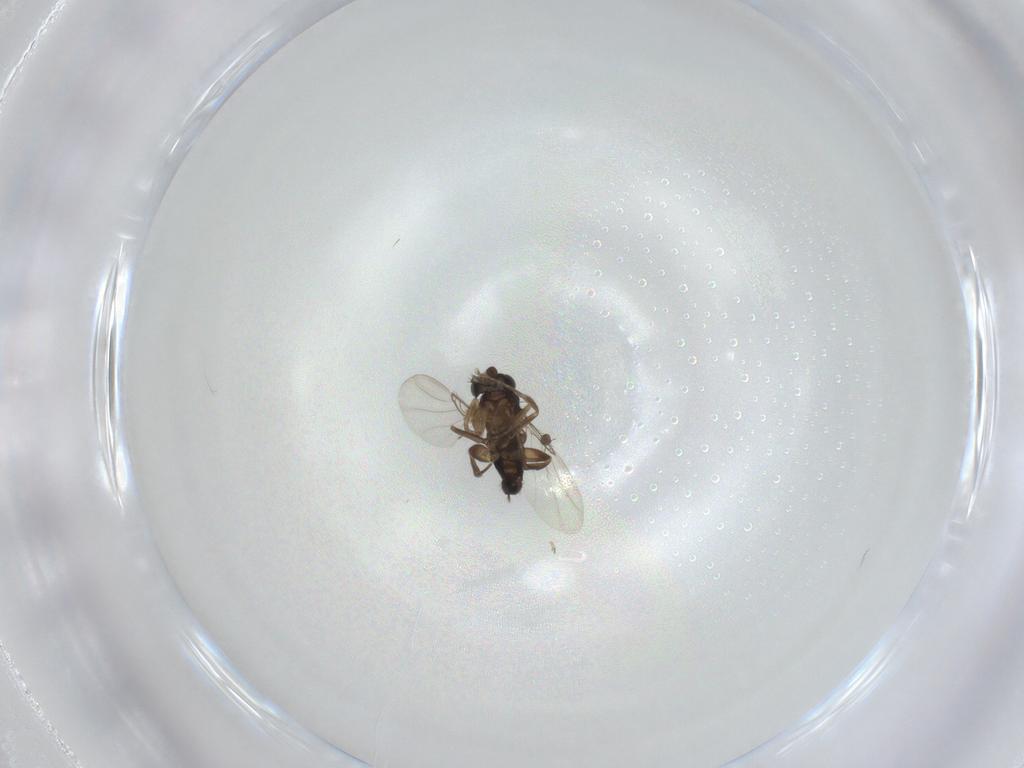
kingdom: Animalia
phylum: Arthropoda
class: Insecta
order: Diptera
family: Phoridae
